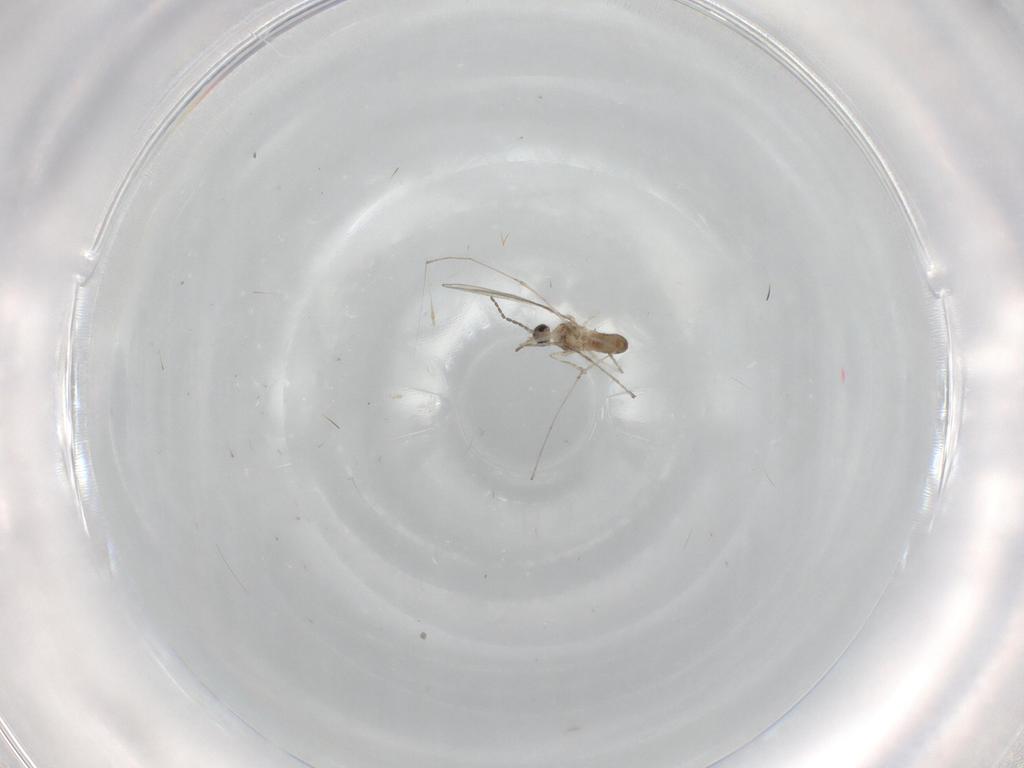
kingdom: Animalia
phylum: Arthropoda
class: Insecta
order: Diptera
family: Cecidomyiidae
